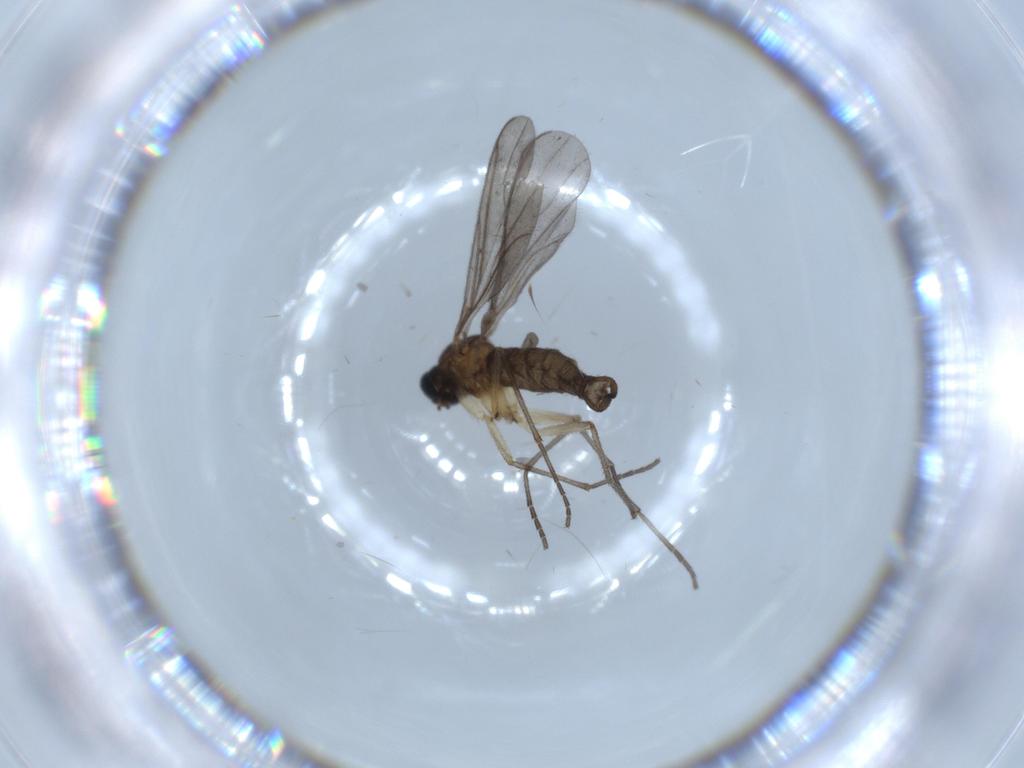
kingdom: Animalia
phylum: Arthropoda
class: Insecta
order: Diptera
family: Sciaridae
